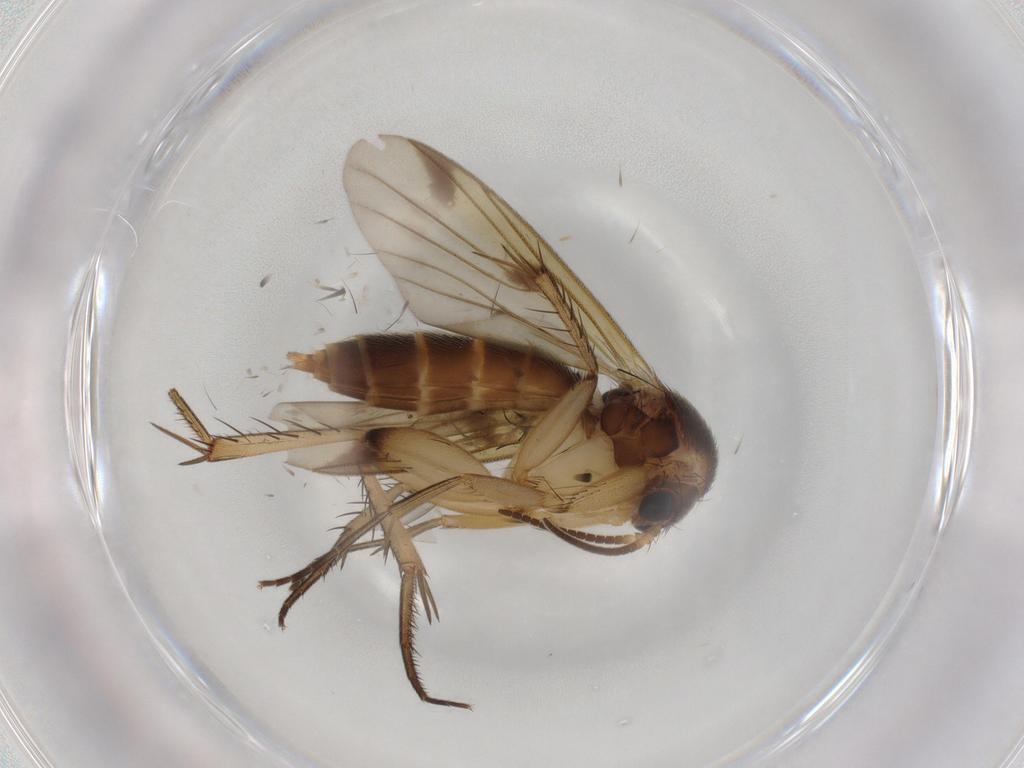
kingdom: Animalia
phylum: Arthropoda
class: Insecta
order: Diptera
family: Mycetophilidae
